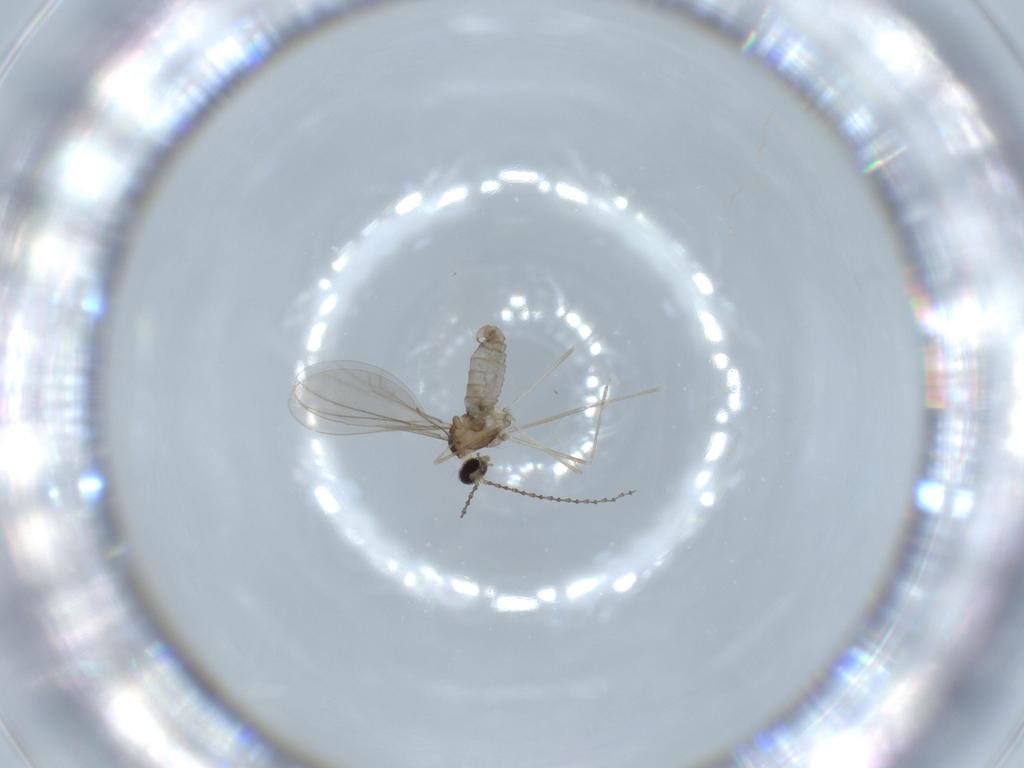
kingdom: Animalia
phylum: Arthropoda
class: Insecta
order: Diptera
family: Cecidomyiidae
